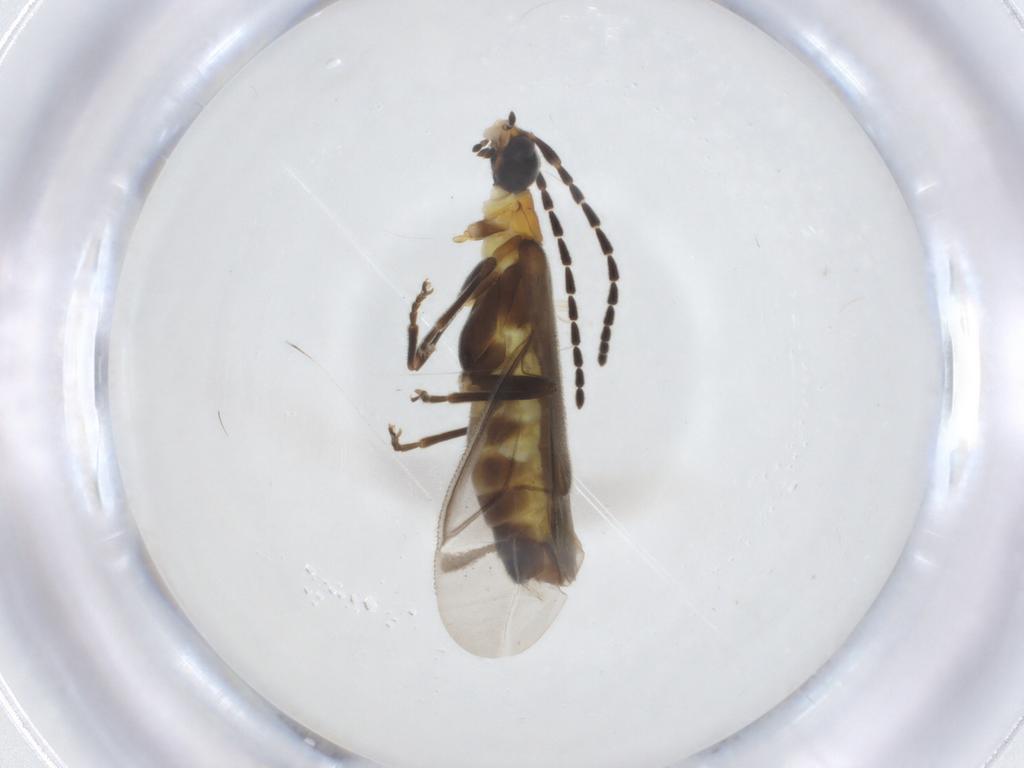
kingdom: Animalia
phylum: Arthropoda
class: Insecta
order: Coleoptera
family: Cantharidae
